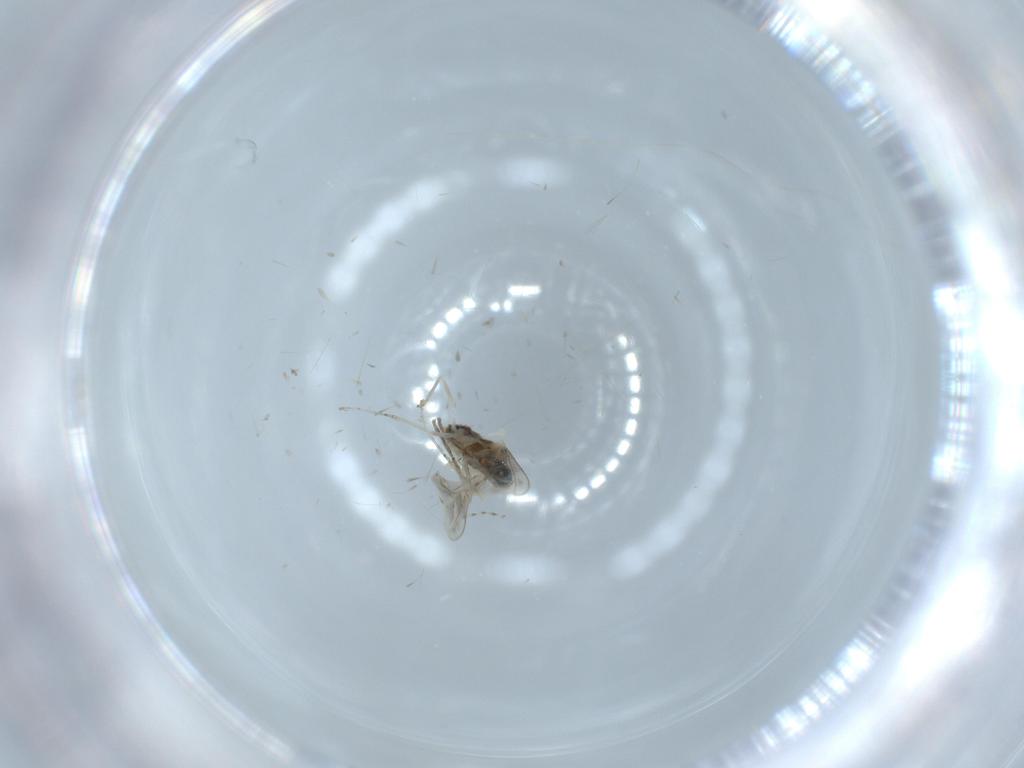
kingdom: Animalia
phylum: Arthropoda
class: Insecta
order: Diptera
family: Cecidomyiidae
